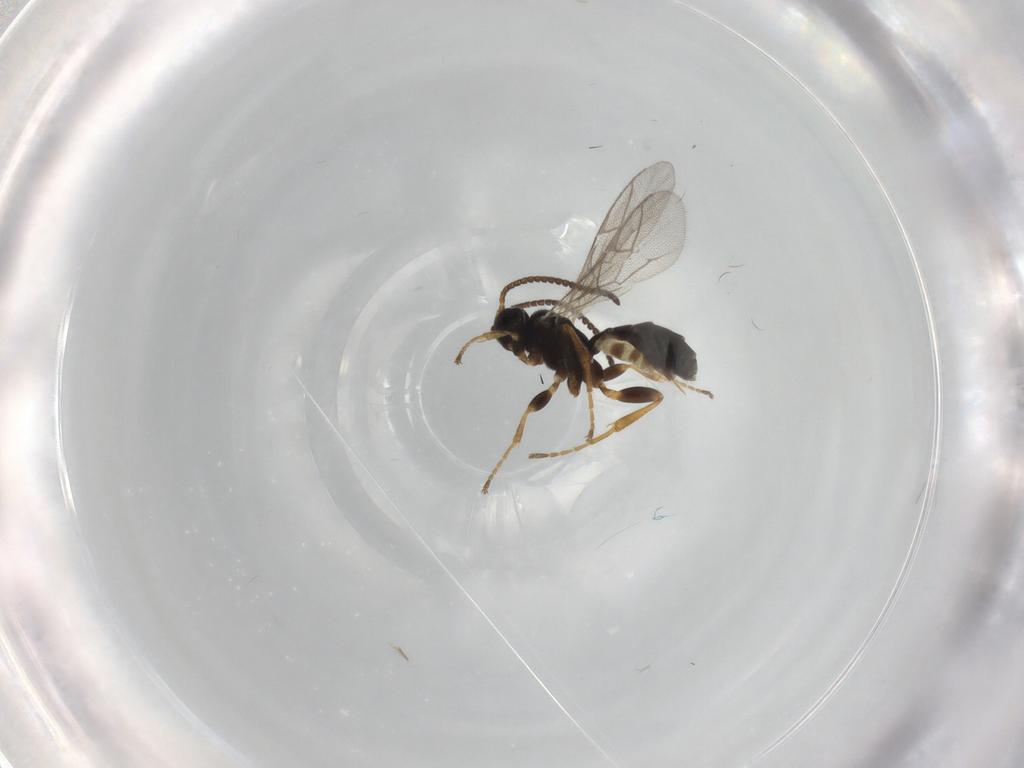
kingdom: Animalia
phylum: Arthropoda
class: Insecta
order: Hymenoptera
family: Ichneumonidae
